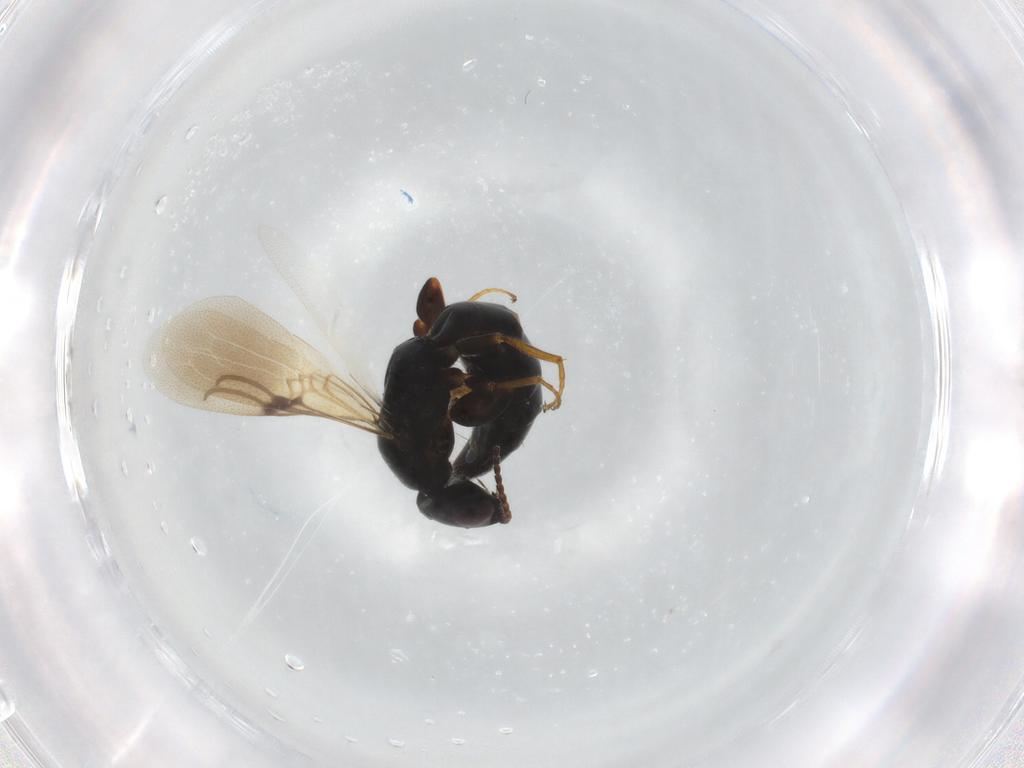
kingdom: Animalia
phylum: Arthropoda
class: Insecta
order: Hymenoptera
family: Bethylidae
